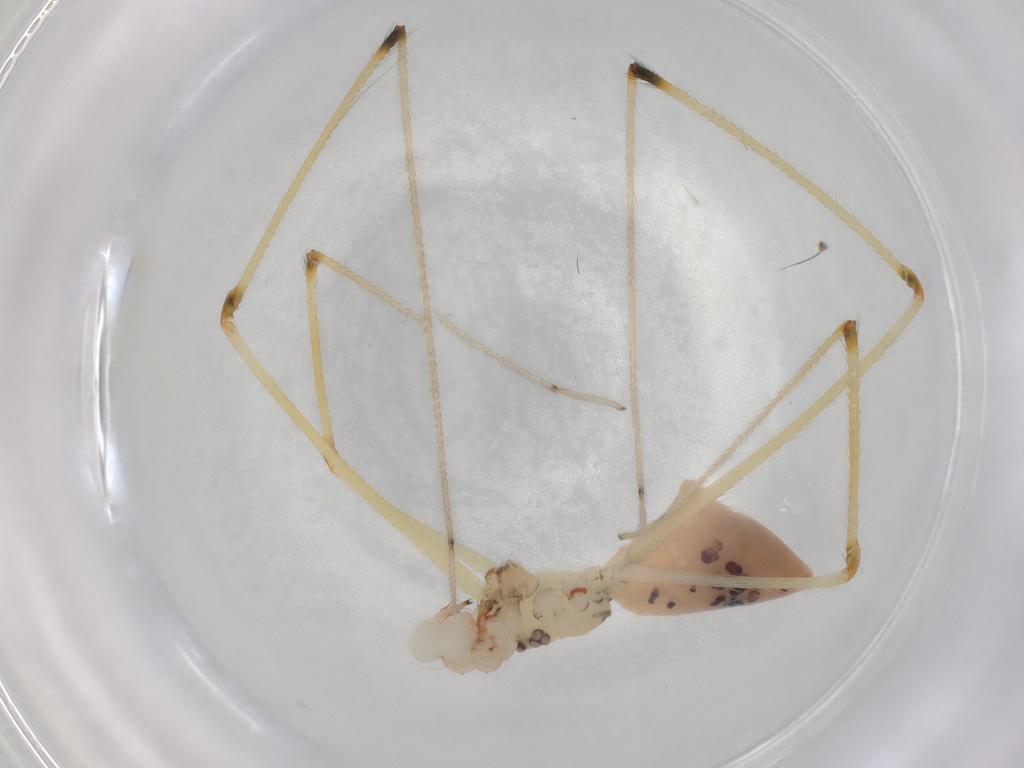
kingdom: Animalia
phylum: Arthropoda
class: Arachnida
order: Araneae
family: Pholcidae
